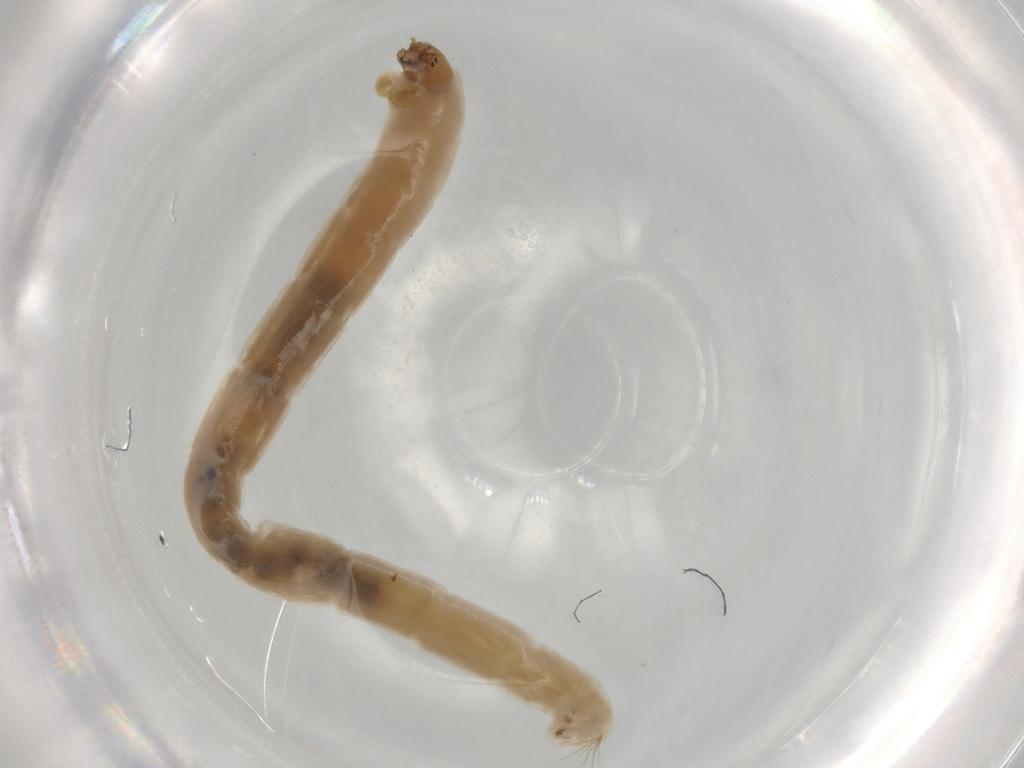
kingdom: Animalia
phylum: Arthropoda
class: Insecta
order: Diptera
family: Chironomidae
